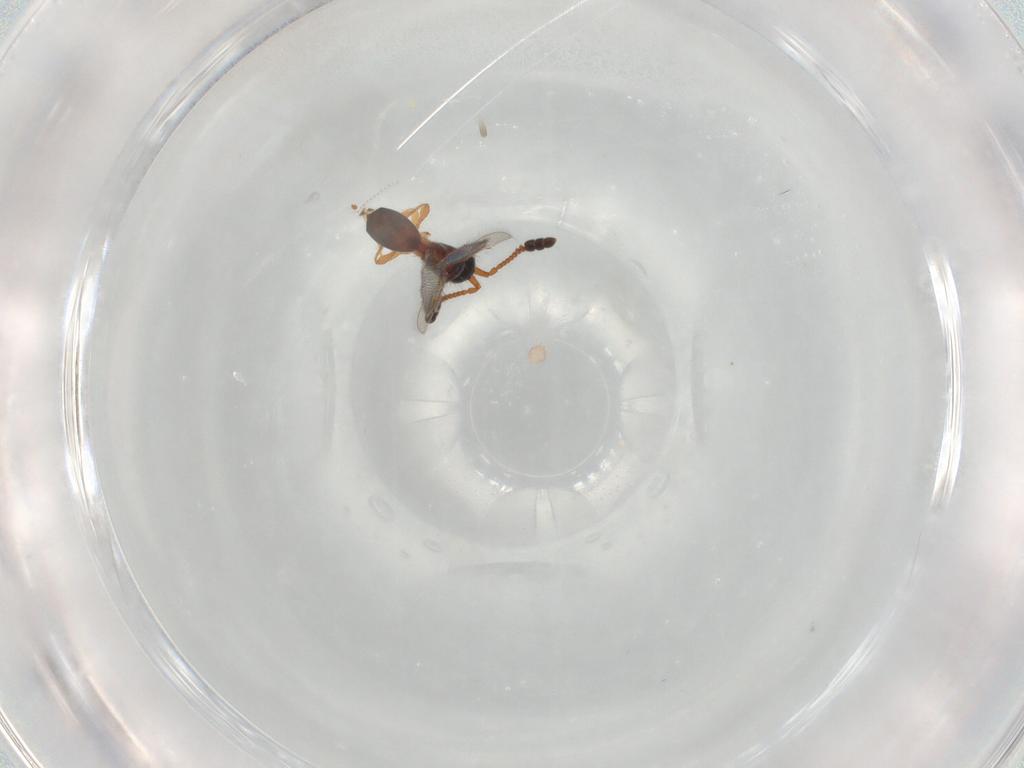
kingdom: Animalia
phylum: Arthropoda
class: Insecta
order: Hymenoptera
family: Diapriidae
